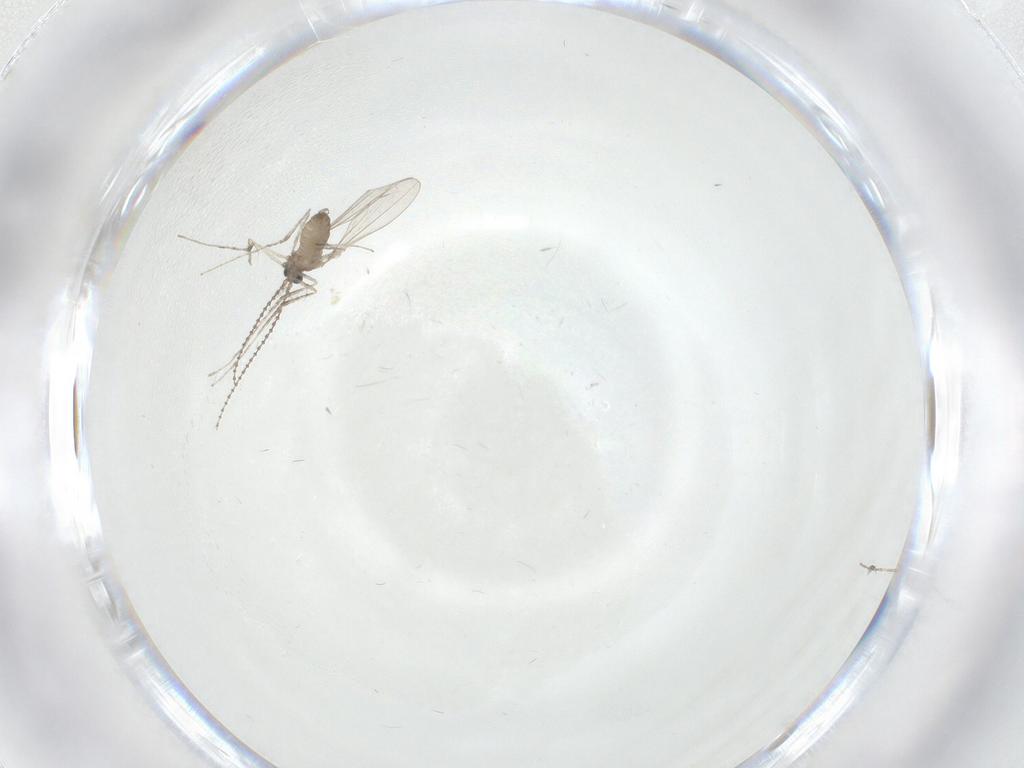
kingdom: Animalia
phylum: Arthropoda
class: Insecta
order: Diptera
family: Cecidomyiidae
